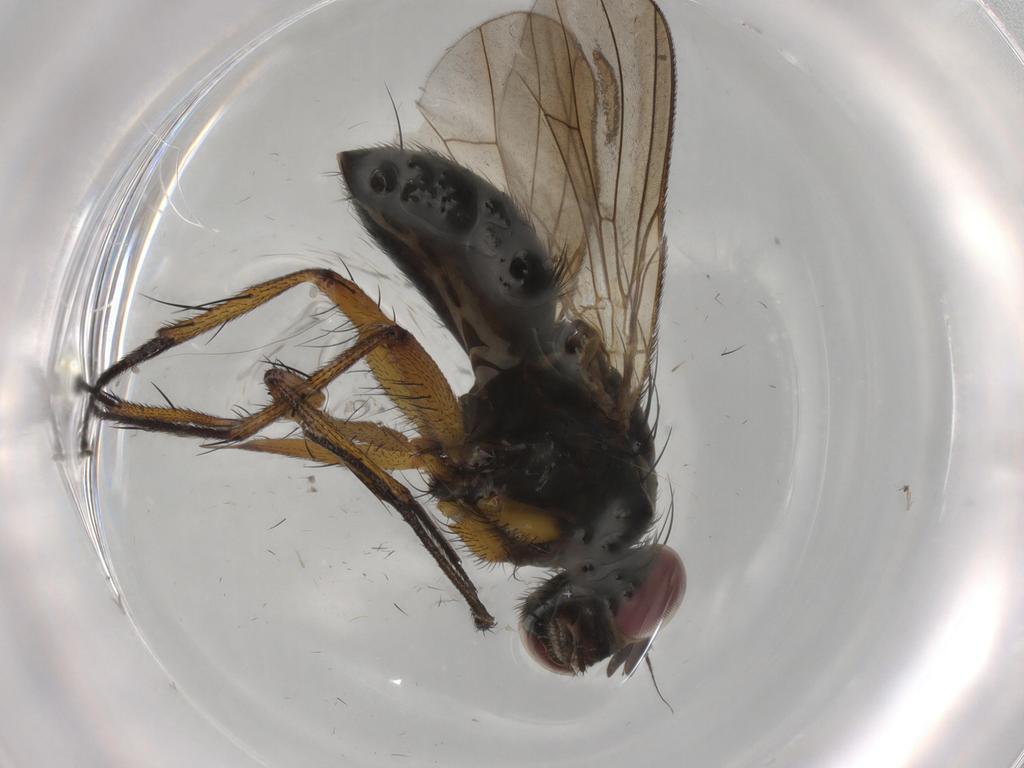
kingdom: Animalia
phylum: Arthropoda
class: Insecta
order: Diptera
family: Muscidae
